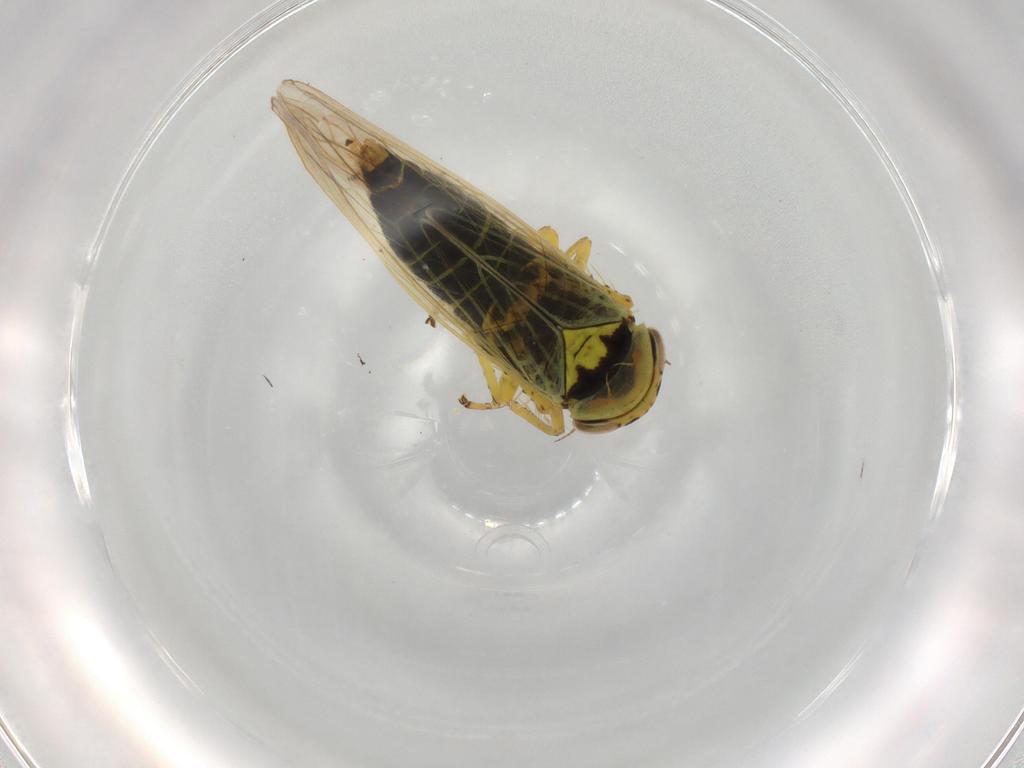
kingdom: Animalia
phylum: Arthropoda
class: Insecta
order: Hemiptera
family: Cicadellidae
